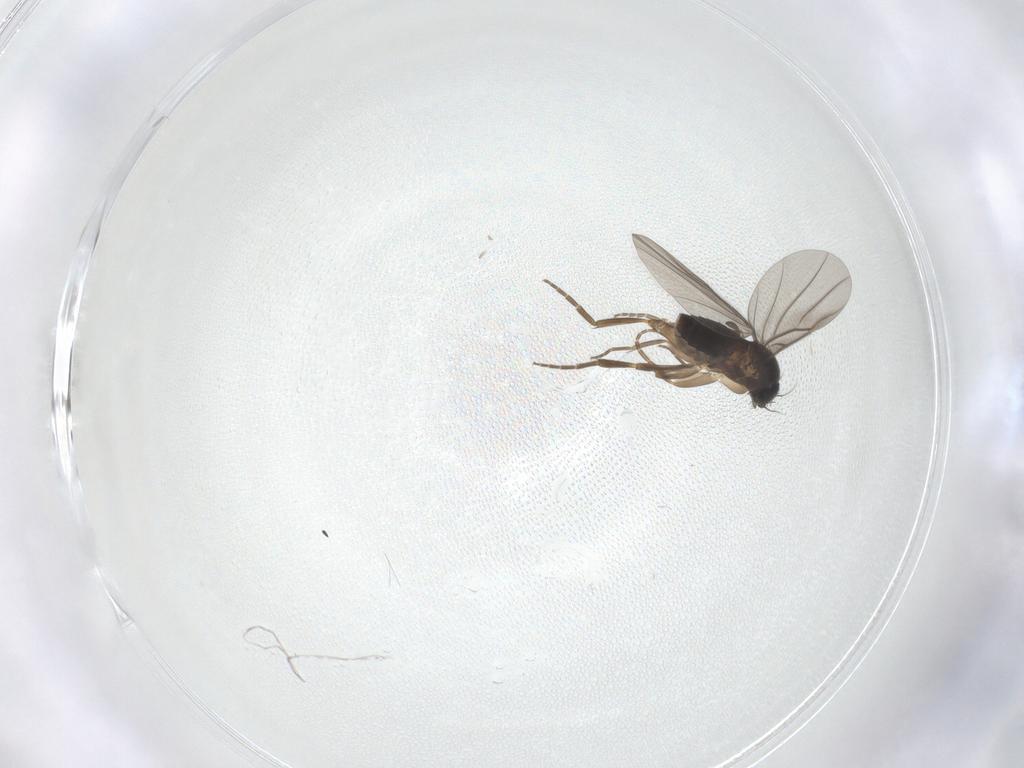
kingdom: Animalia
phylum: Arthropoda
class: Insecta
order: Diptera
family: Phoridae
